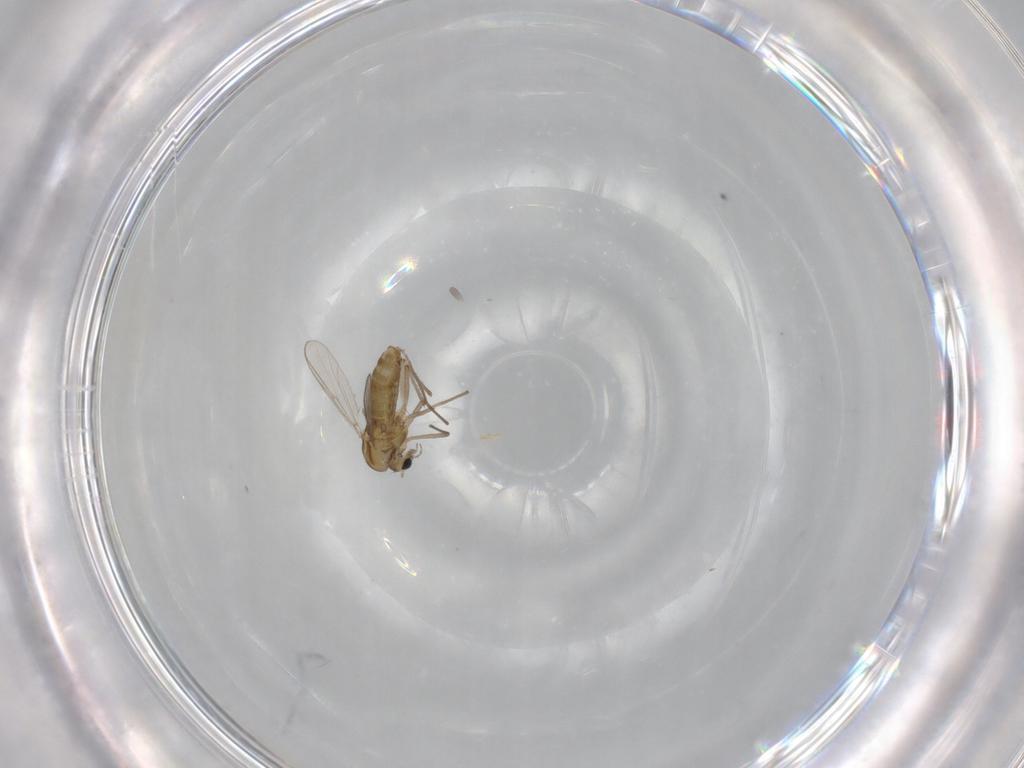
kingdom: Animalia
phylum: Arthropoda
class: Insecta
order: Diptera
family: Chironomidae
